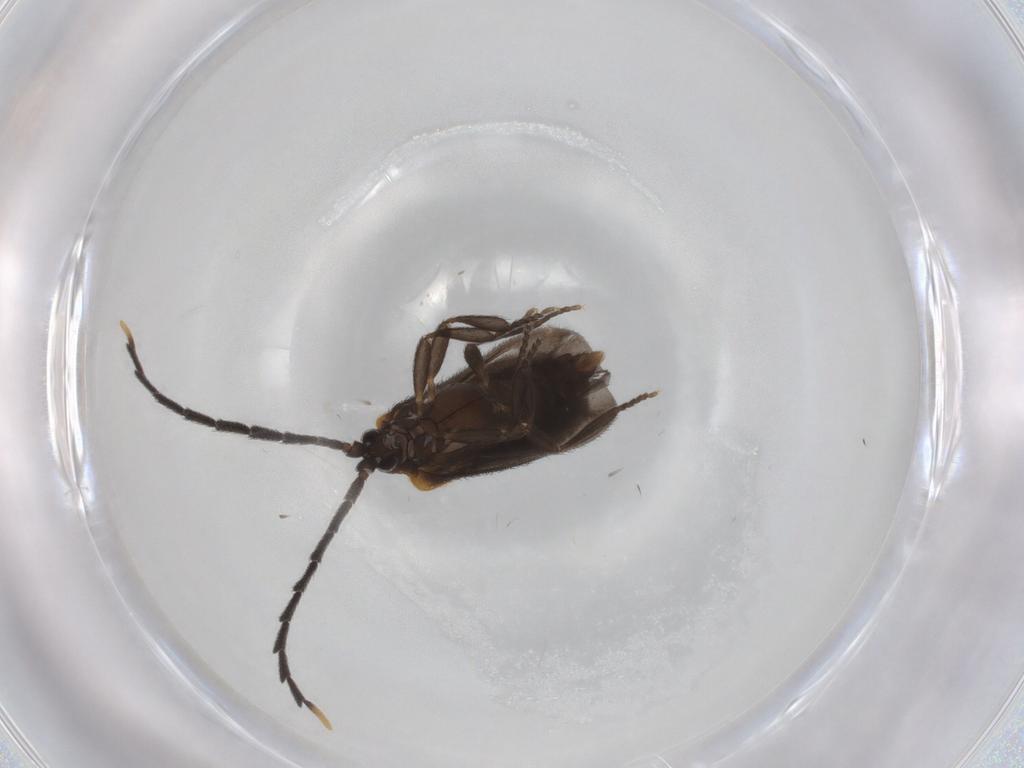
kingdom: Animalia
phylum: Arthropoda
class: Insecta
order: Coleoptera
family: Lycidae
